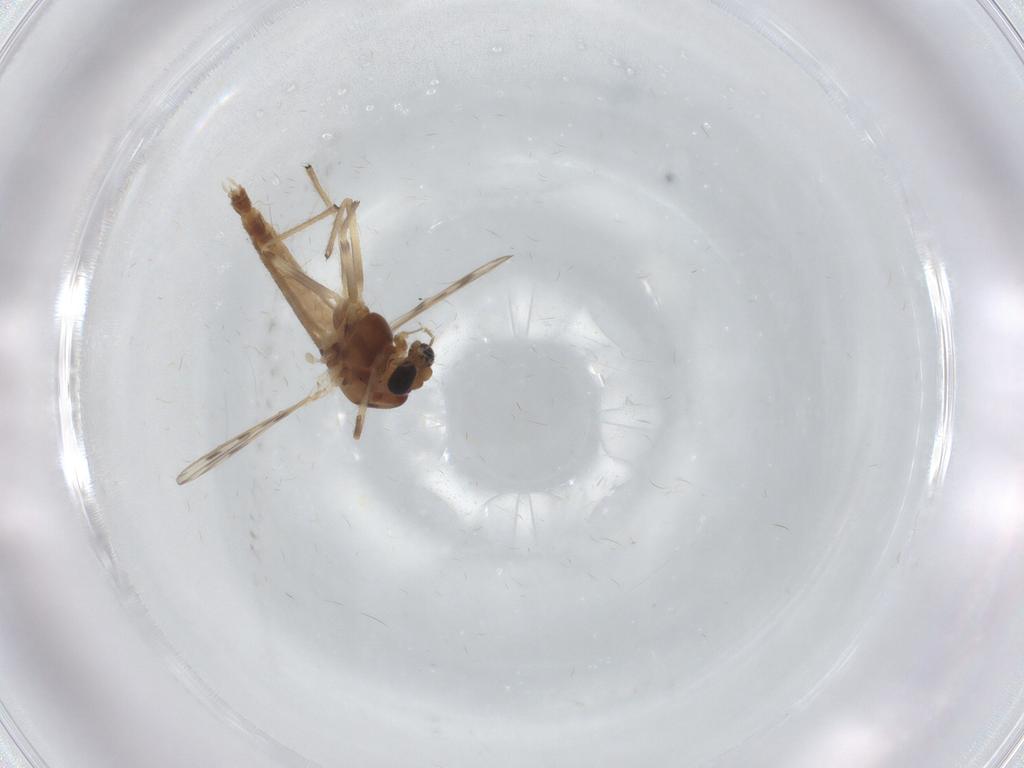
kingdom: Animalia
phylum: Arthropoda
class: Insecta
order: Diptera
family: Chironomidae
